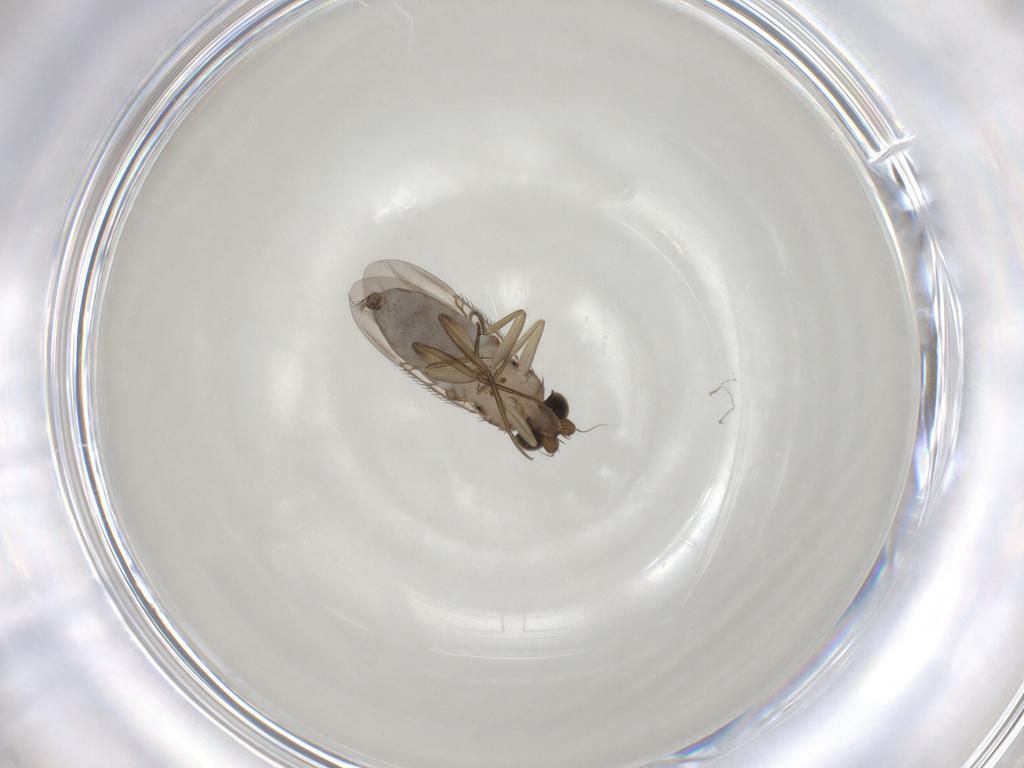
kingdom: Animalia
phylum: Arthropoda
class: Insecta
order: Diptera
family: Phoridae
